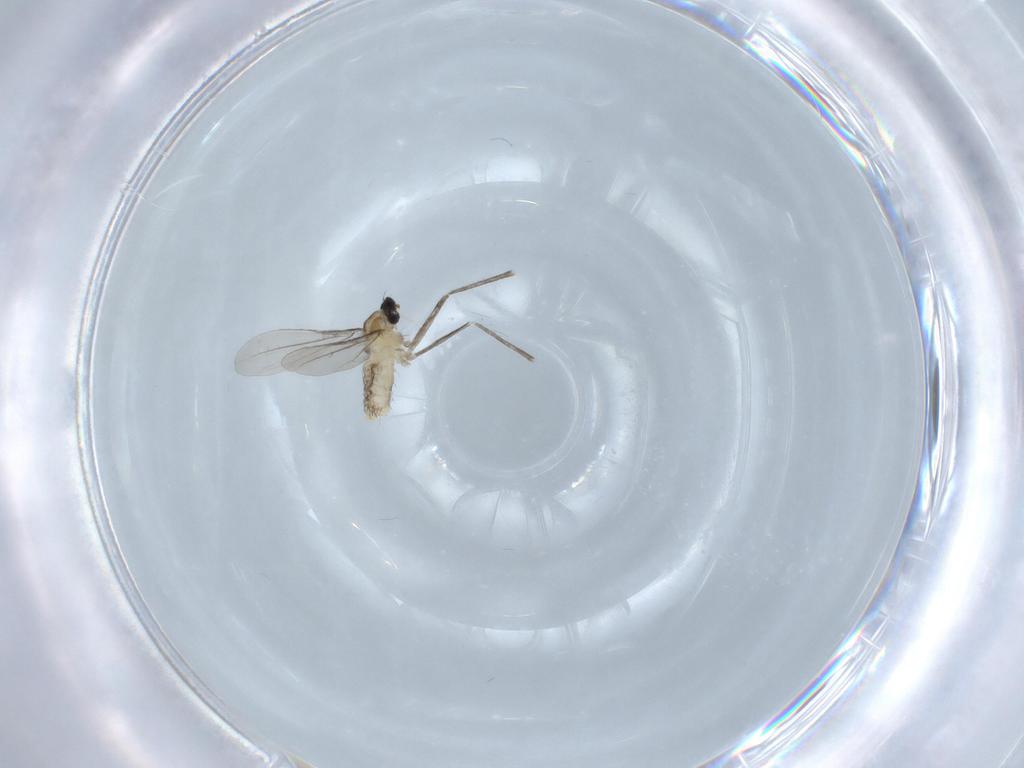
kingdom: Animalia
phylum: Arthropoda
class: Insecta
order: Diptera
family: Cecidomyiidae
